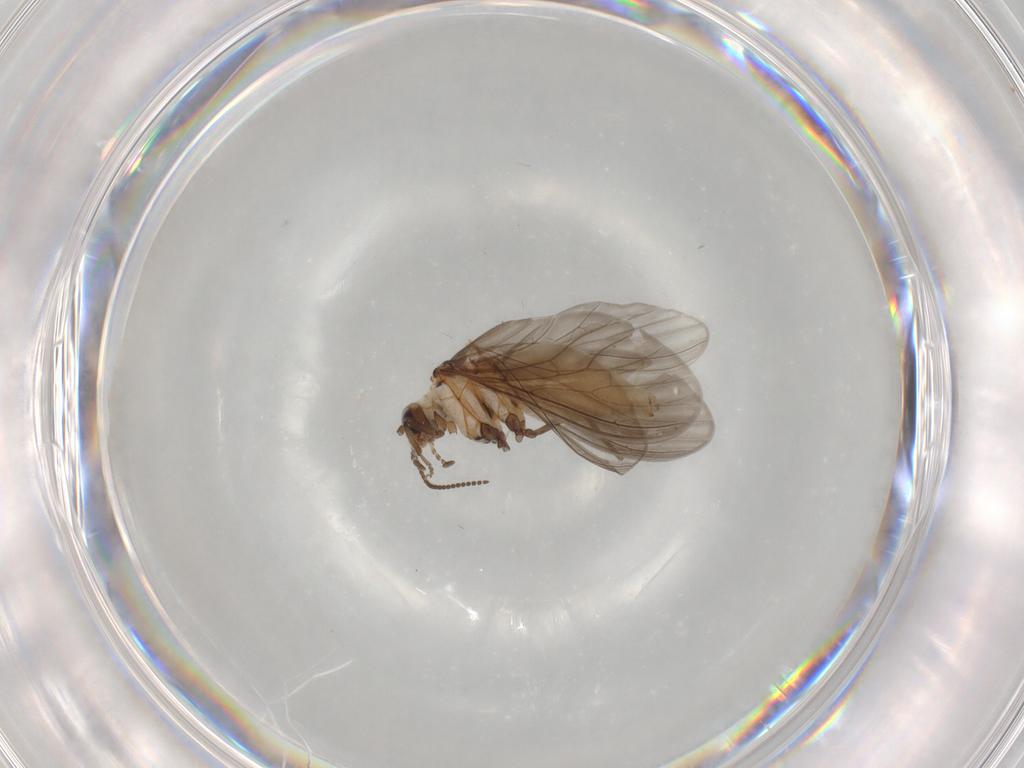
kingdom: Animalia
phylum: Arthropoda
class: Insecta
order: Neuroptera
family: Coniopterygidae
